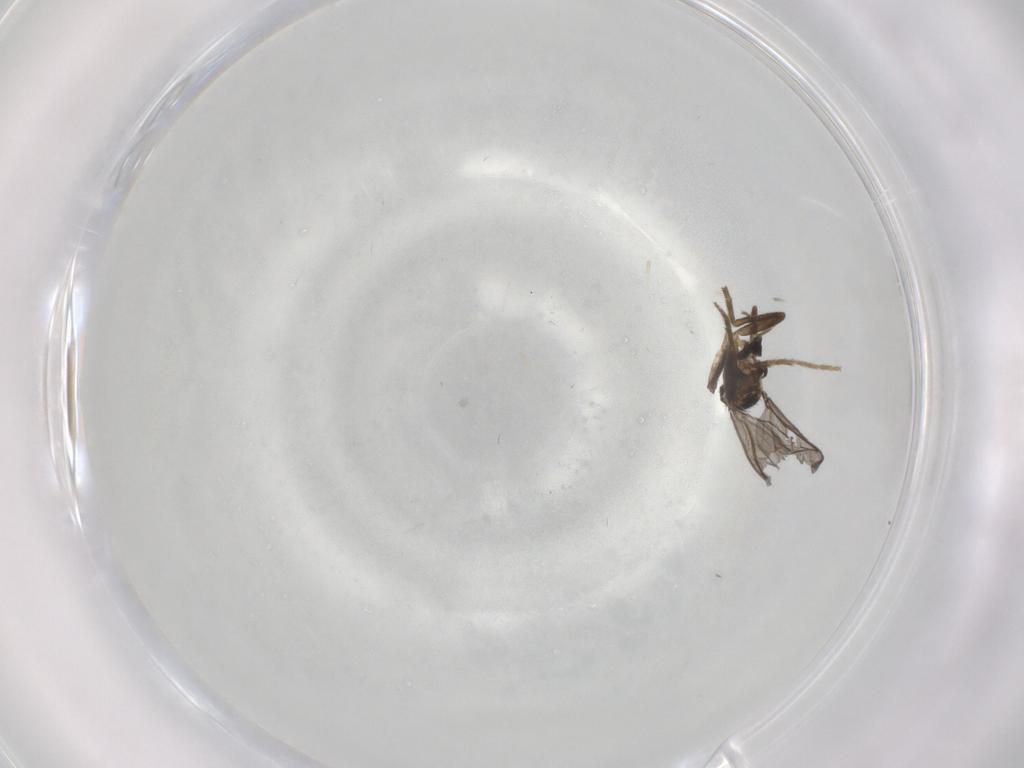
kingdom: Animalia
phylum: Arthropoda
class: Insecta
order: Diptera
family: Phoridae
